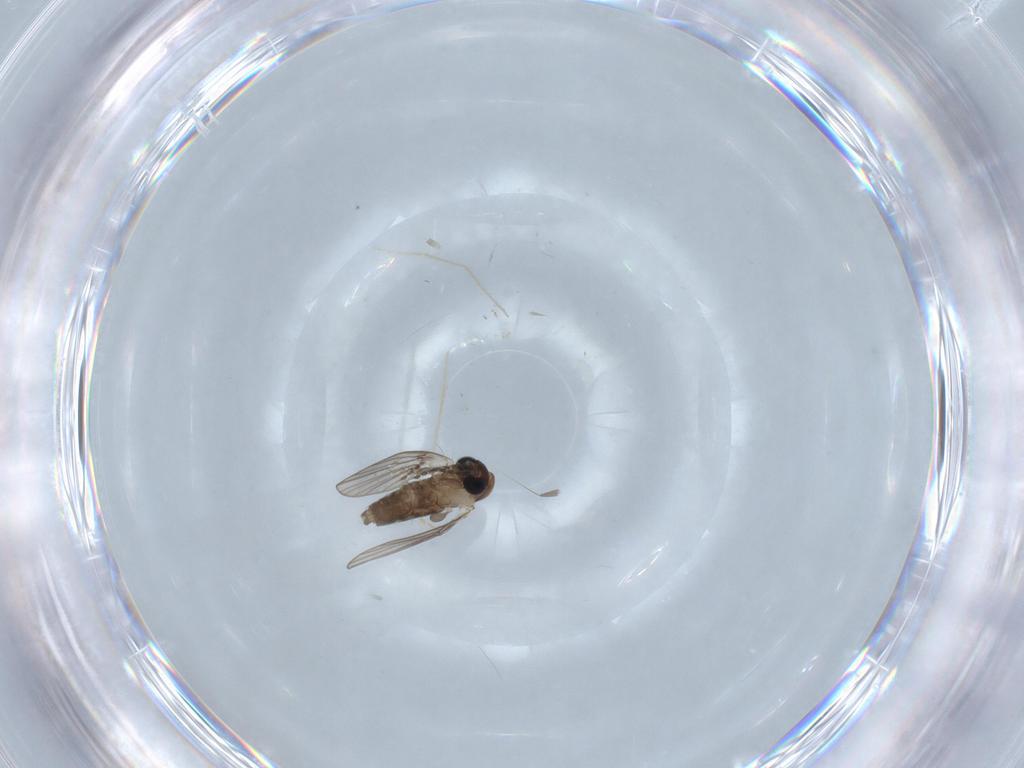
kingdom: Animalia
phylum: Arthropoda
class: Insecta
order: Diptera
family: Psychodidae
